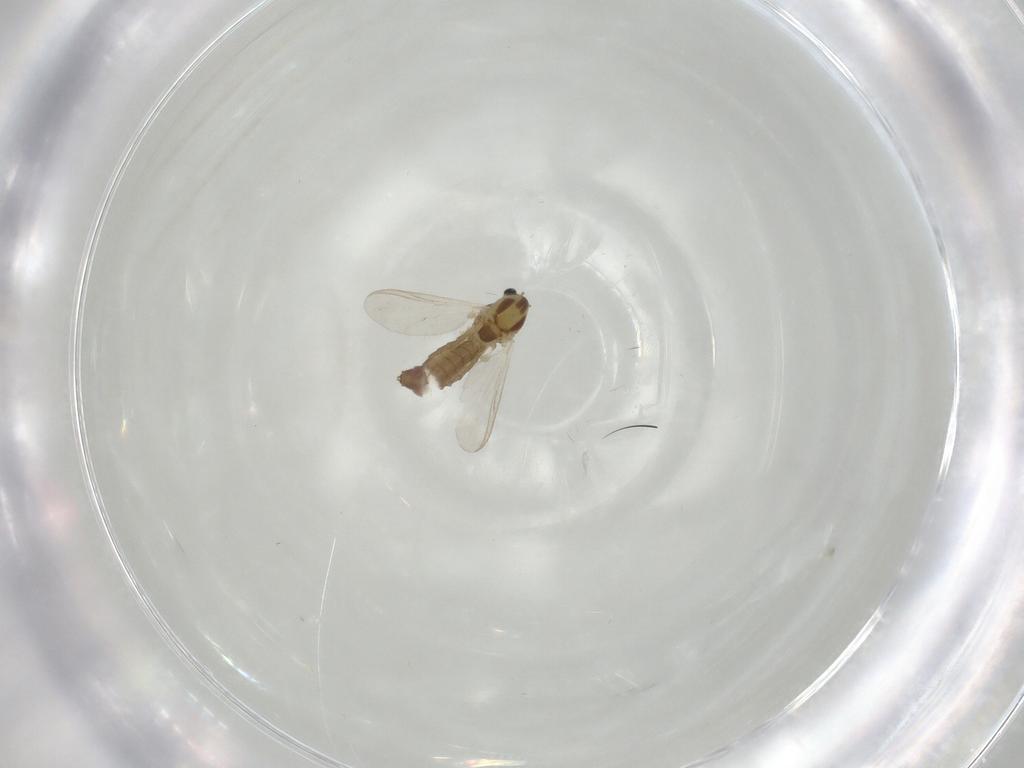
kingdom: Animalia
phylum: Arthropoda
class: Insecta
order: Diptera
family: Chironomidae
